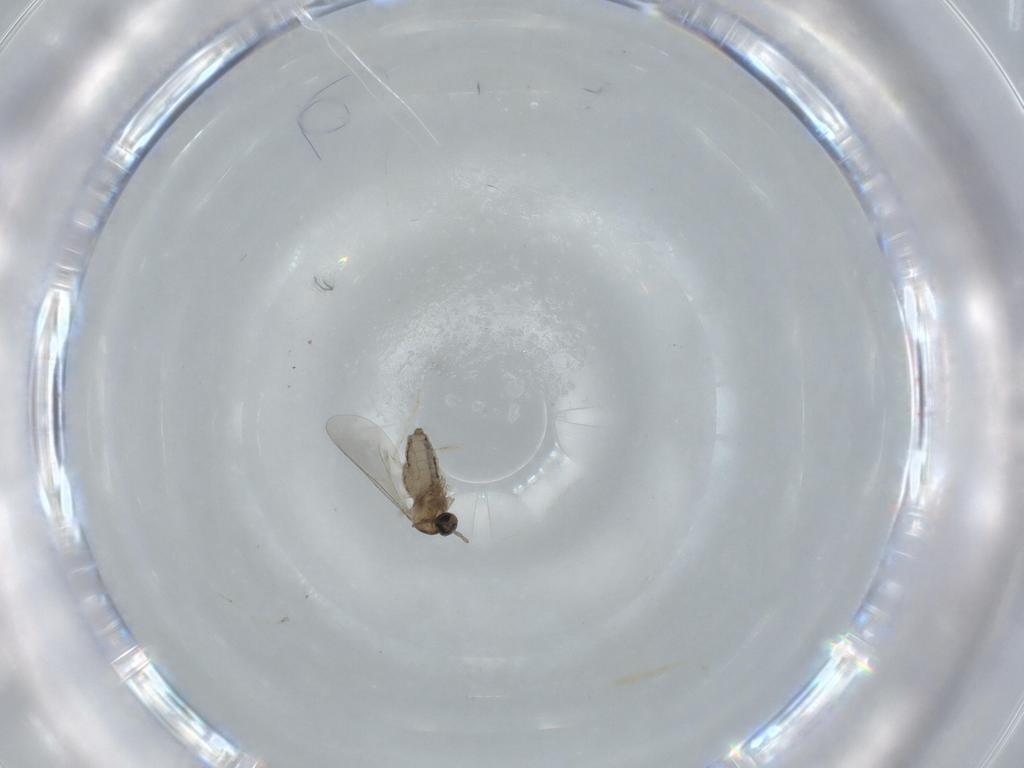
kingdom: Animalia
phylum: Arthropoda
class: Insecta
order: Diptera
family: Cecidomyiidae
